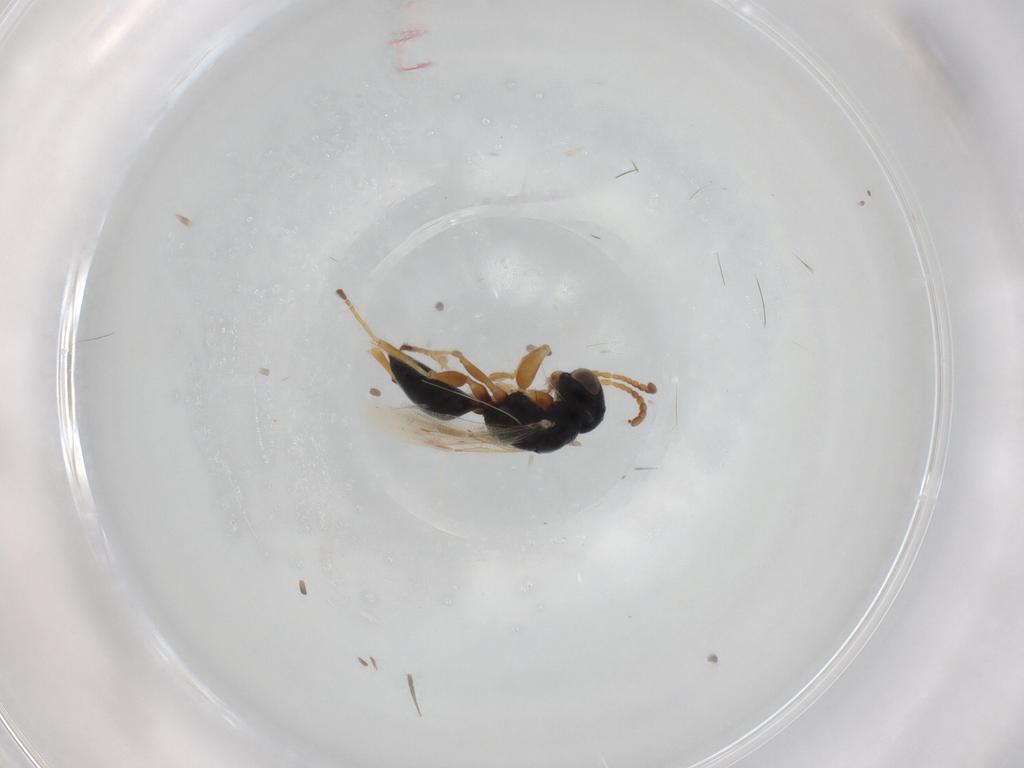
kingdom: Animalia
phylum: Arthropoda
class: Insecta
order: Hymenoptera
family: Dryinidae
